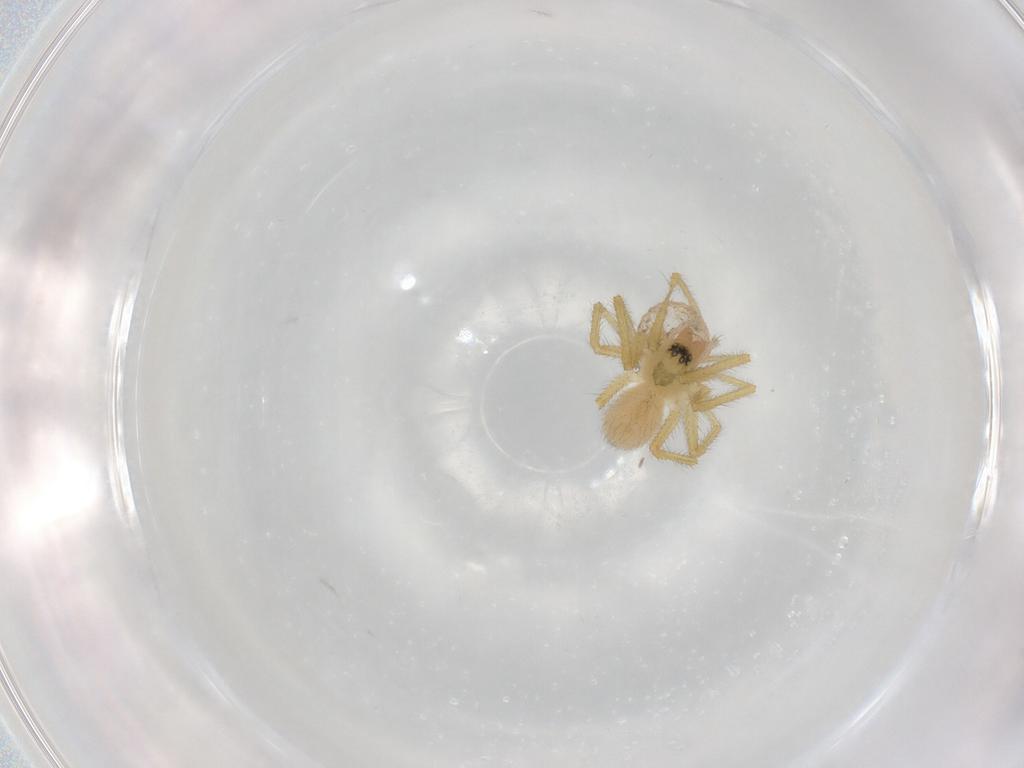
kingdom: Animalia
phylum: Arthropoda
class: Arachnida
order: Araneae
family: Linyphiidae
